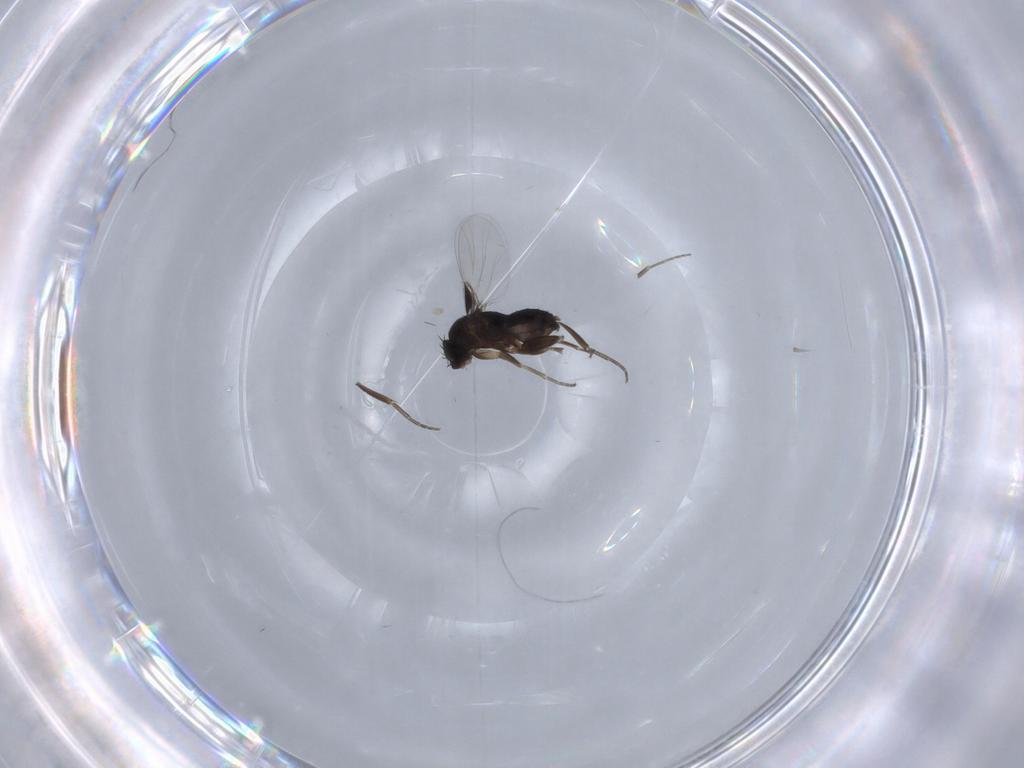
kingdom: Animalia
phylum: Arthropoda
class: Insecta
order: Diptera
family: Phoridae
